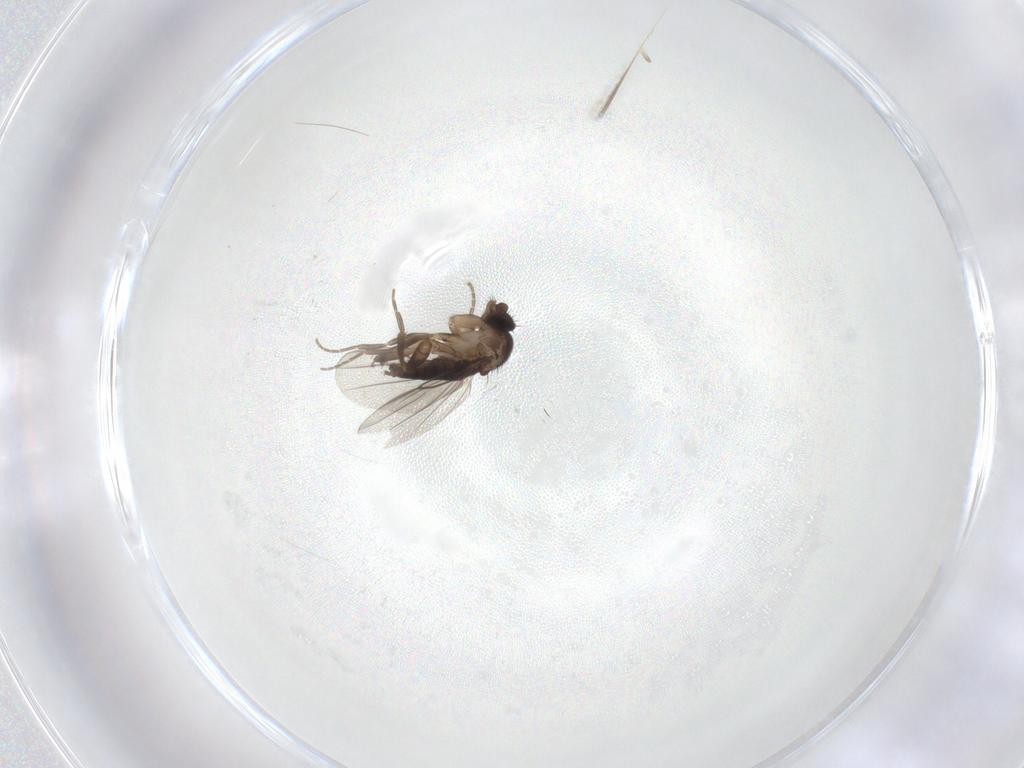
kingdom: Animalia
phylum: Arthropoda
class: Insecta
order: Diptera
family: Phoridae
